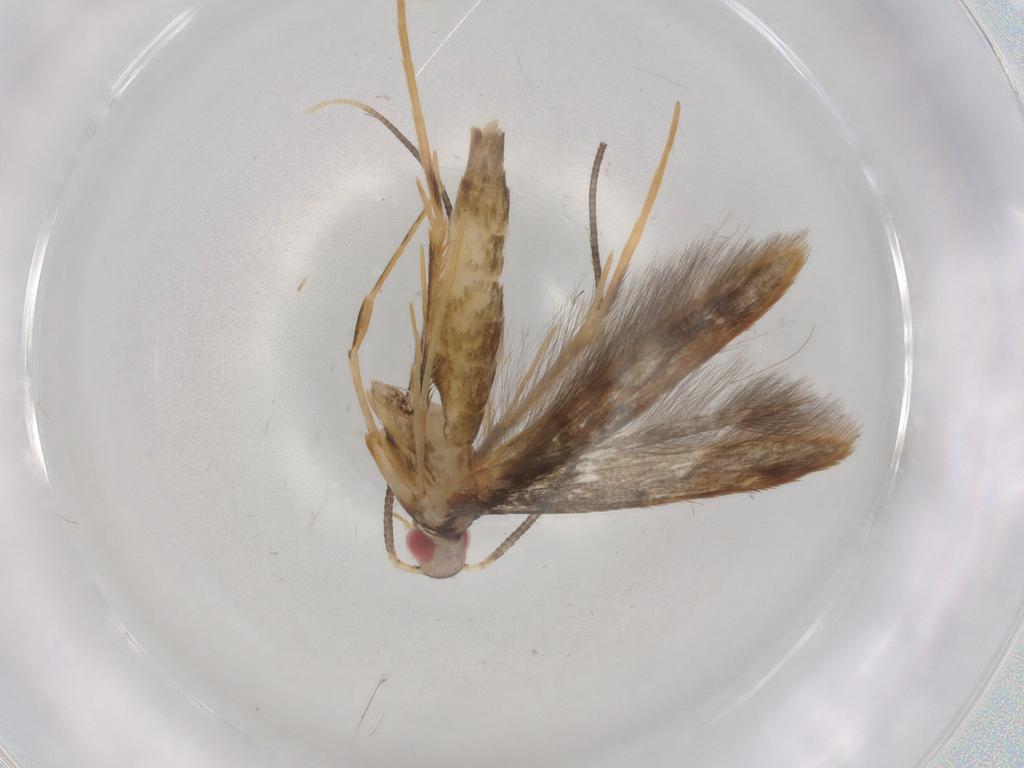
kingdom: Animalia
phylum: Arthropoda
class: Insecta
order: Lepidoptera
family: Gracillariidae
